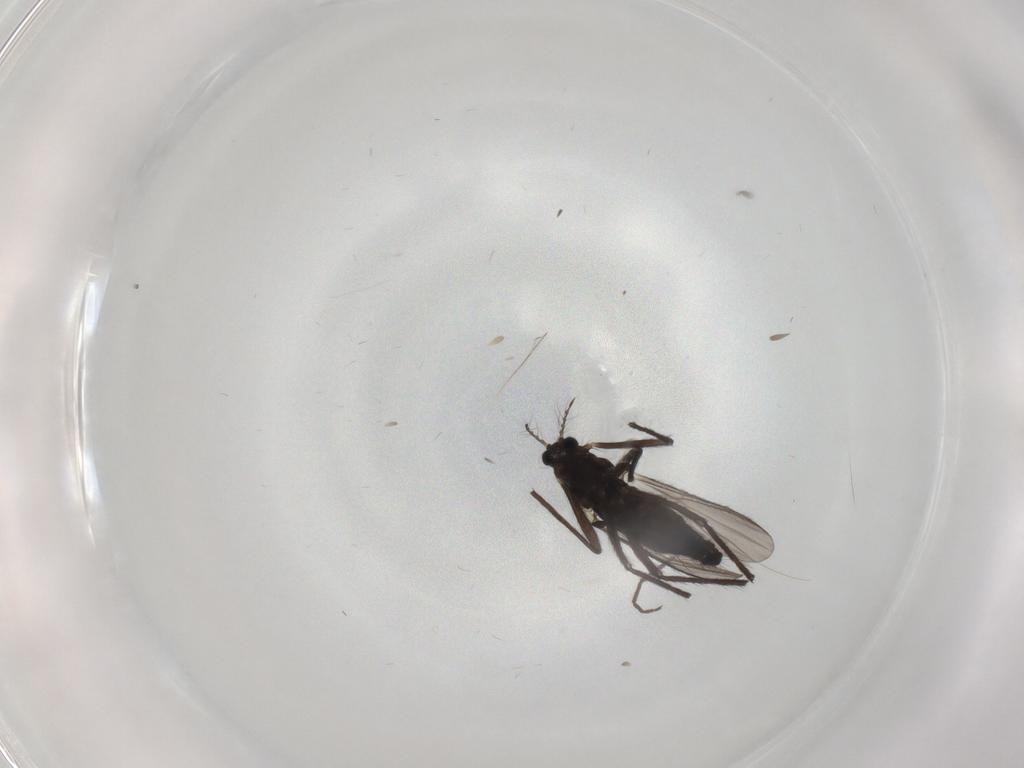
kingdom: Animalia
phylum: Arthropoda
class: Insecta
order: Diptera
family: Chironomidae
